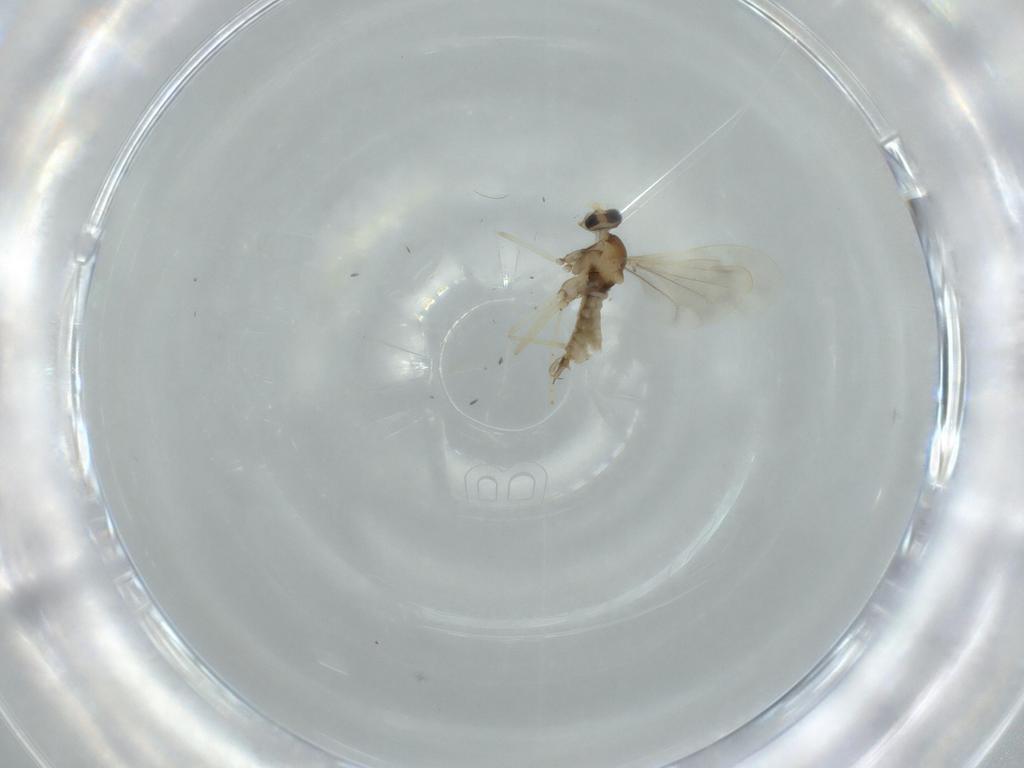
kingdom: Animalia
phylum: Arthropoda
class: Insecta
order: Diptera
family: Cecidomyiidae
